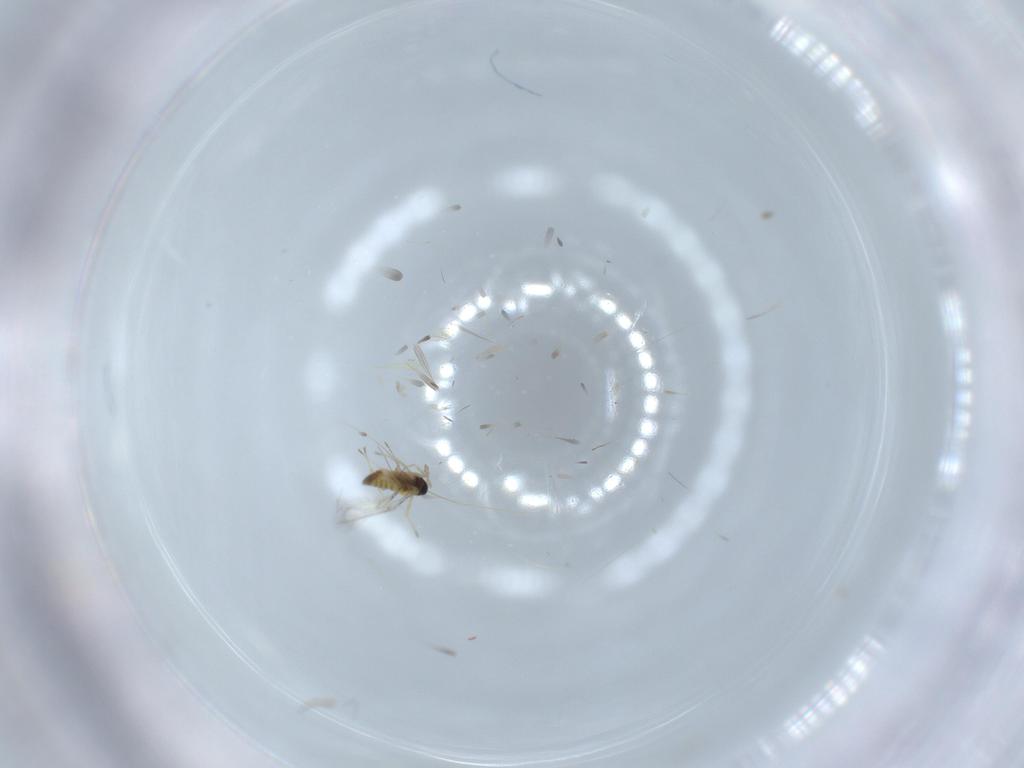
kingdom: Animalia
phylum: Arthropoda
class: Insecta
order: Hymenoptera
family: Trichogrammatidae
